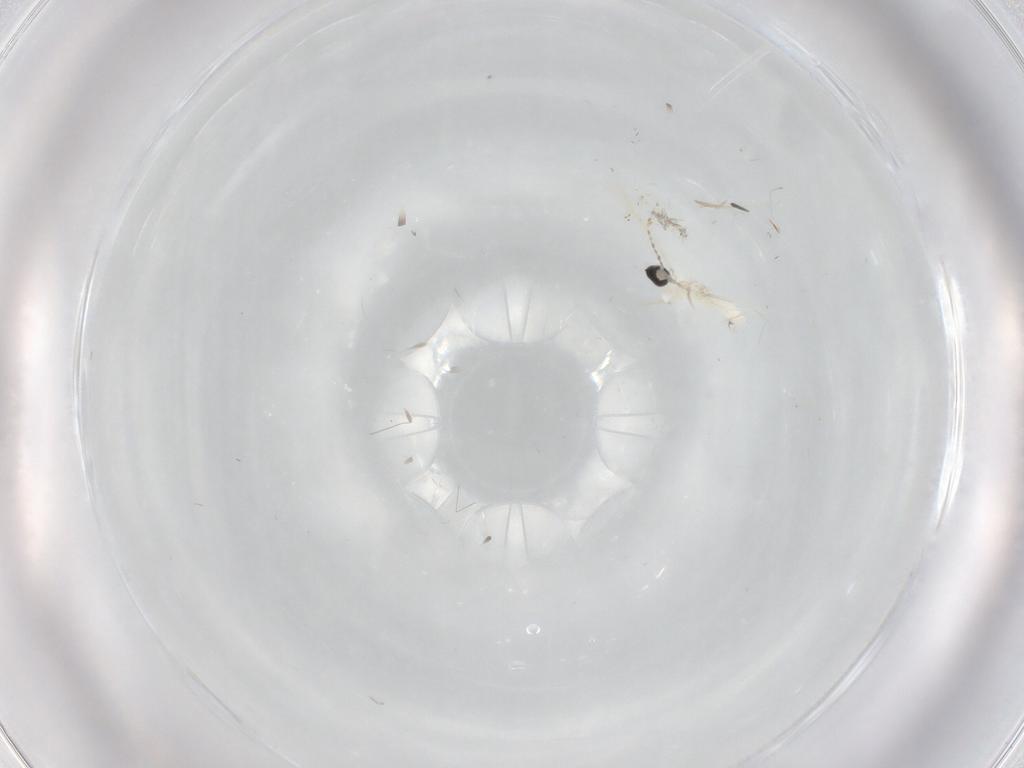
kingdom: Animalia
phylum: Arthropoda
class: Insecta
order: Diptera
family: Cecidomyiidae
